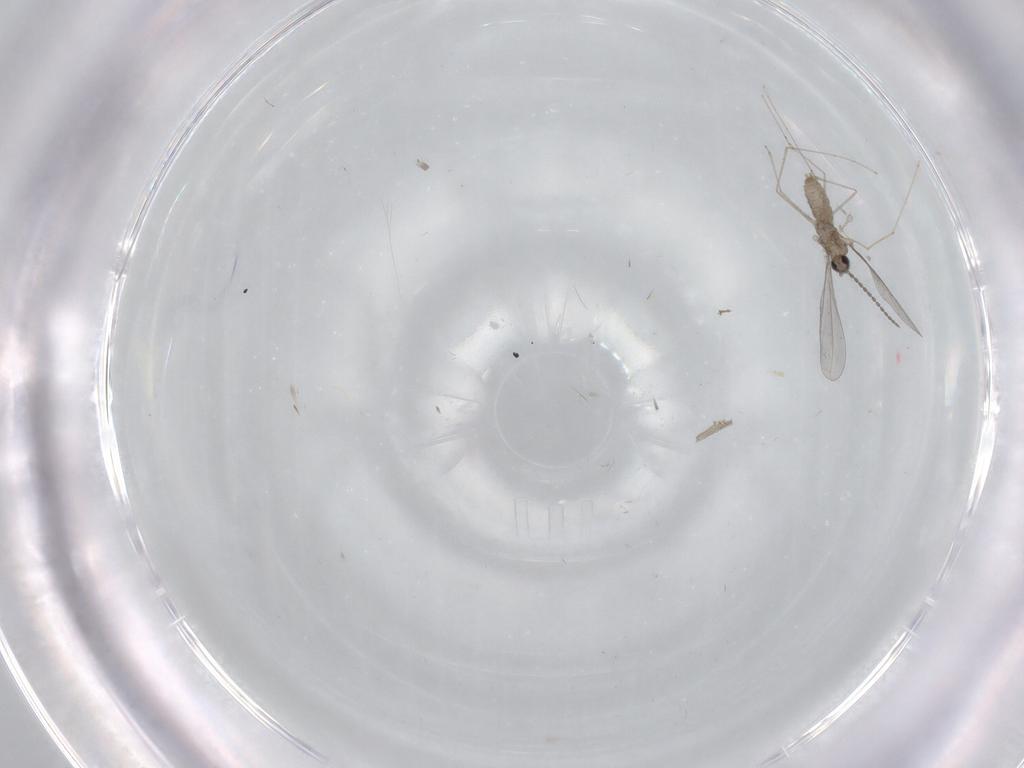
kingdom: Animalia
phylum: Arthropoda
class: Insecta
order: Diptera
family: Cecidomyiidae
